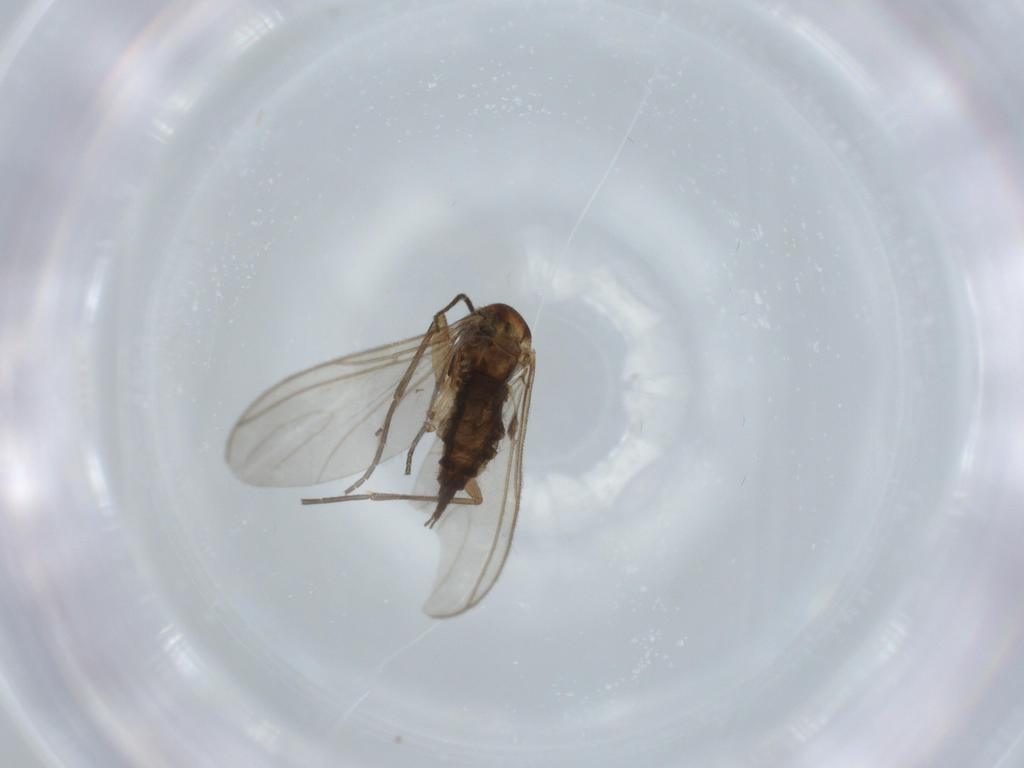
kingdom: Animalia
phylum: Arthropoda
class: Insecta
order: Diptera
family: Sciaridae
